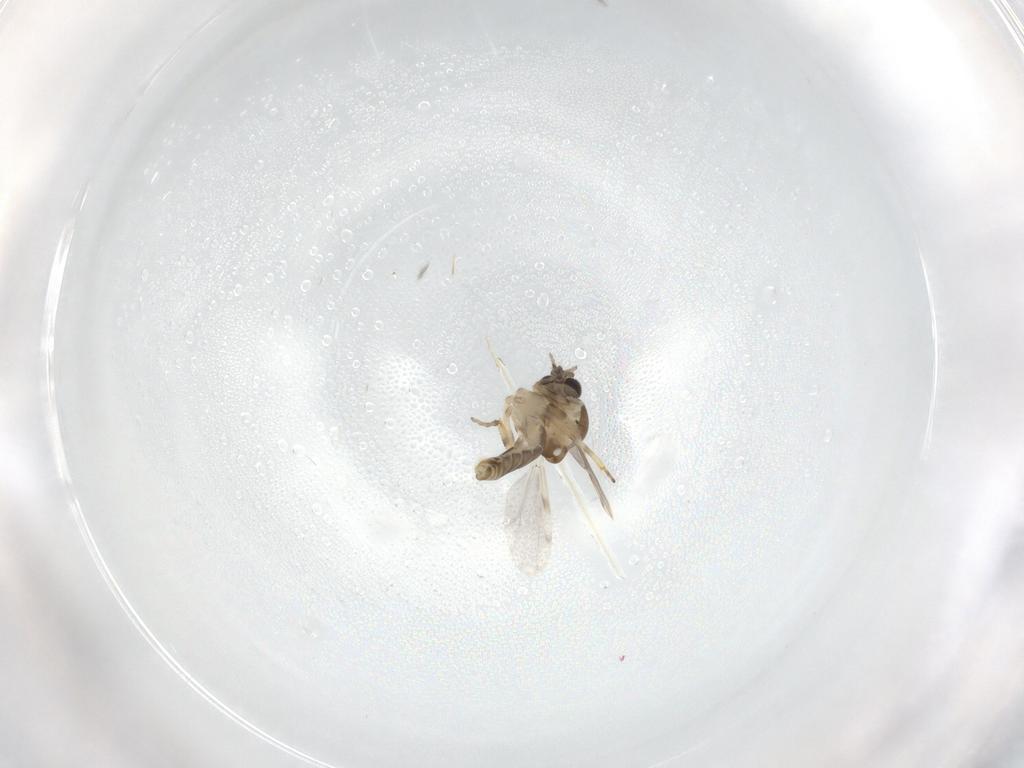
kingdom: Animalia
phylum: Arthropoda
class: Insecta
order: Diptera
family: Ceratopogonidae
